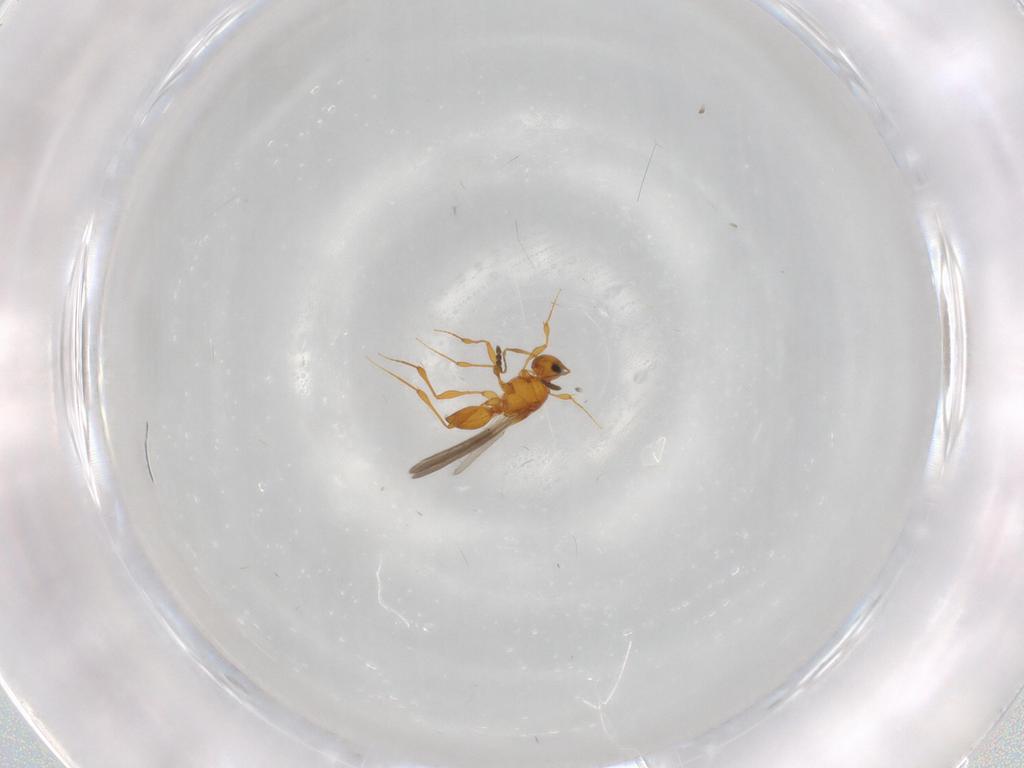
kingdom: Animalia
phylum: Arthropoda
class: Insecta
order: Hymenoptera
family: Platygastridae
